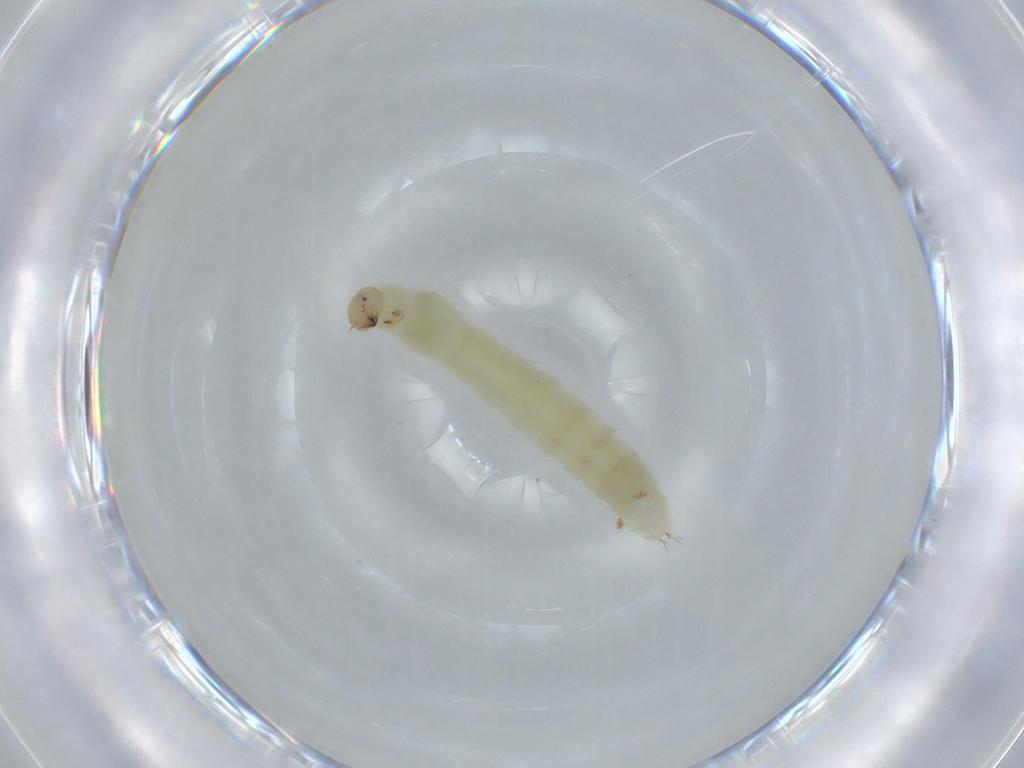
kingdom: Animalia
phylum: Arthropoda
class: Insecta
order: Diptera
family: Chironomidae
